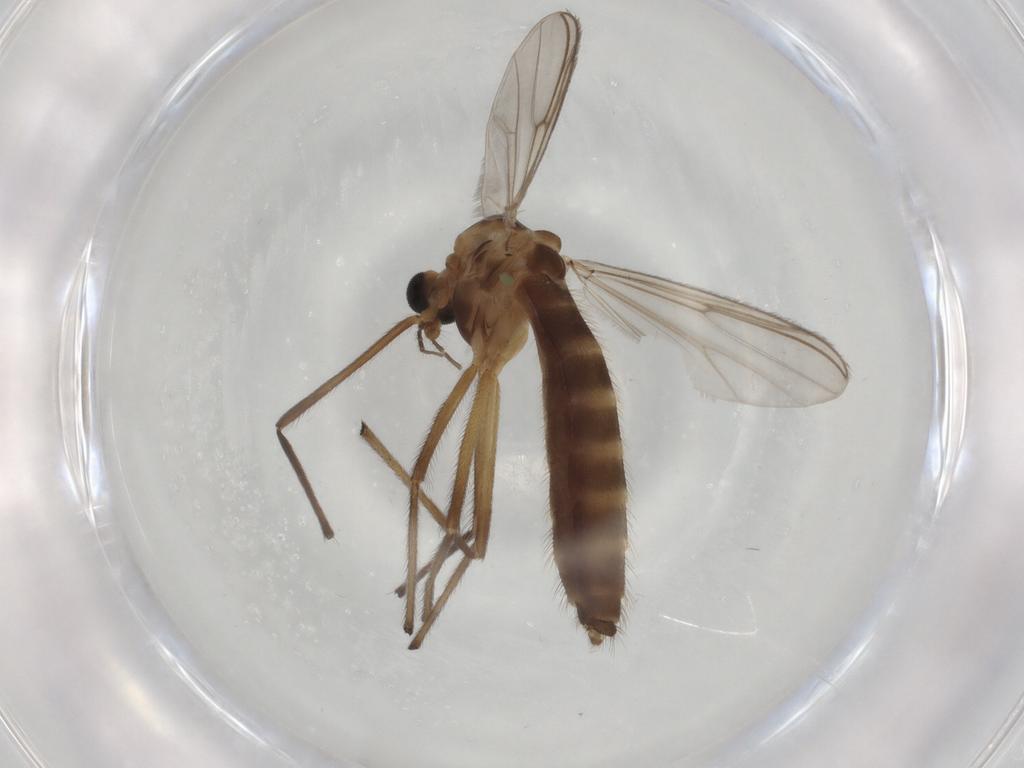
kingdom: Animalia
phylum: Arthropoda
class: Insecta
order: Diptera
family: Chironomidae
